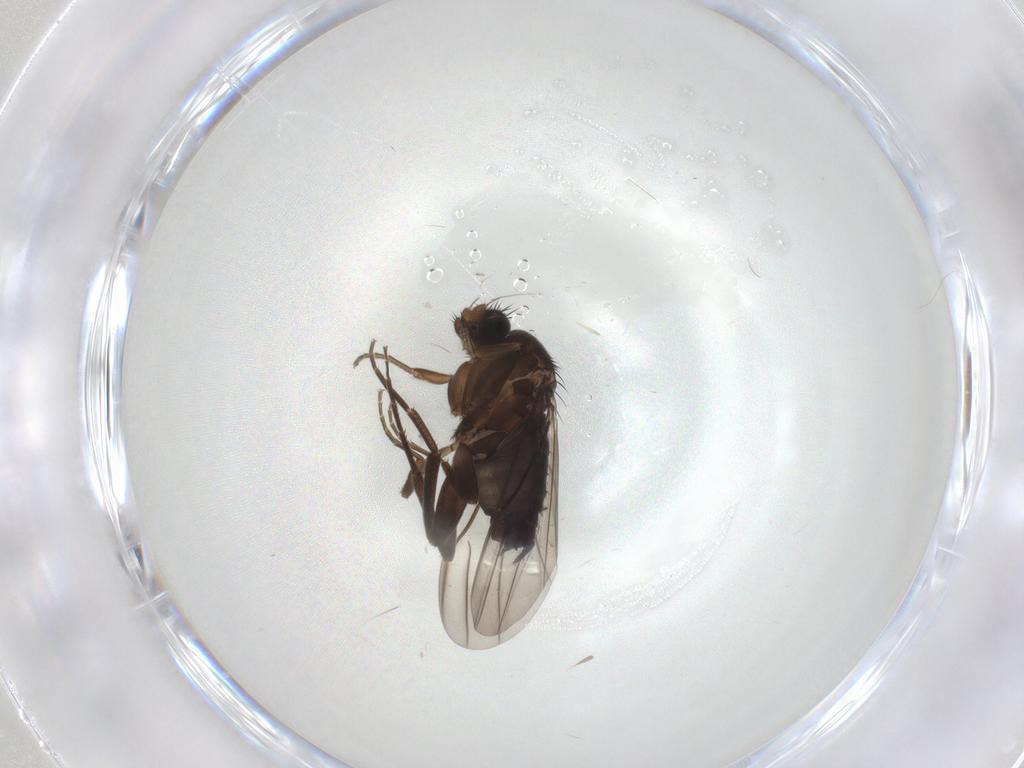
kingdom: Animalia
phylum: Arthropoda
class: Insecta
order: Diptera
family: Phoridae
